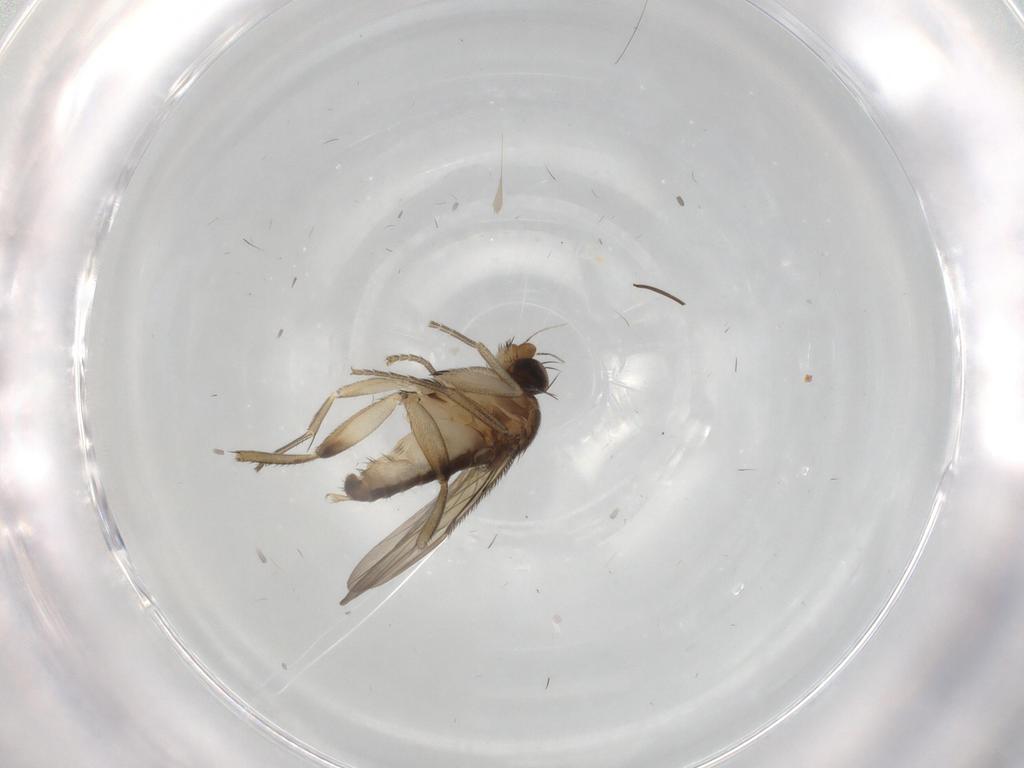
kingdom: Animalia
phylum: Arthropoda
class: Insecta
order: Diptera
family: Phoridae
